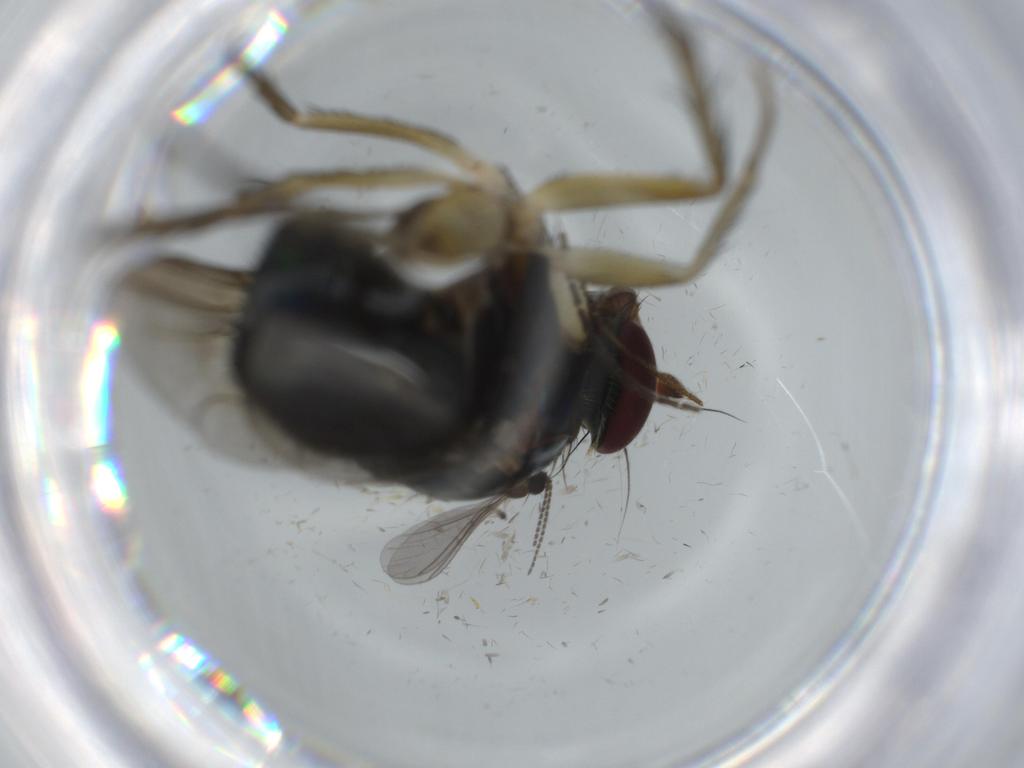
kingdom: Animalia
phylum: Arthropoda
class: Insecta
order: Diptera
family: Dolichopodidae
